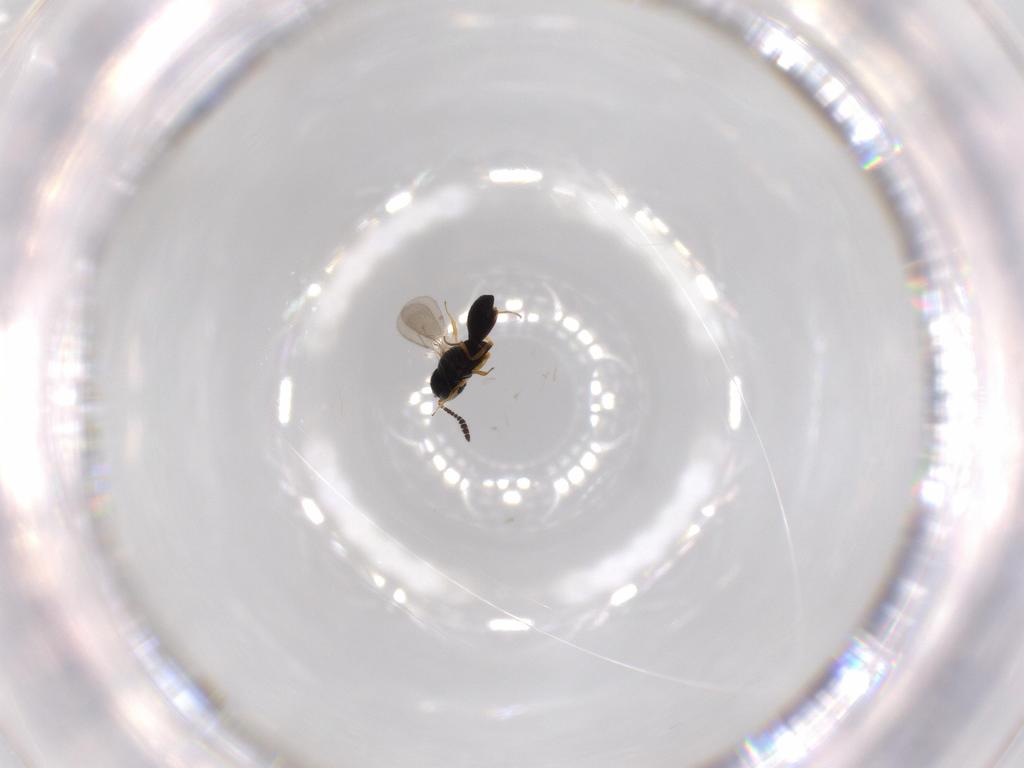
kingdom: Animalia
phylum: Arthropoda
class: Insecta
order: Hymenoptera
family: Scelionidae
